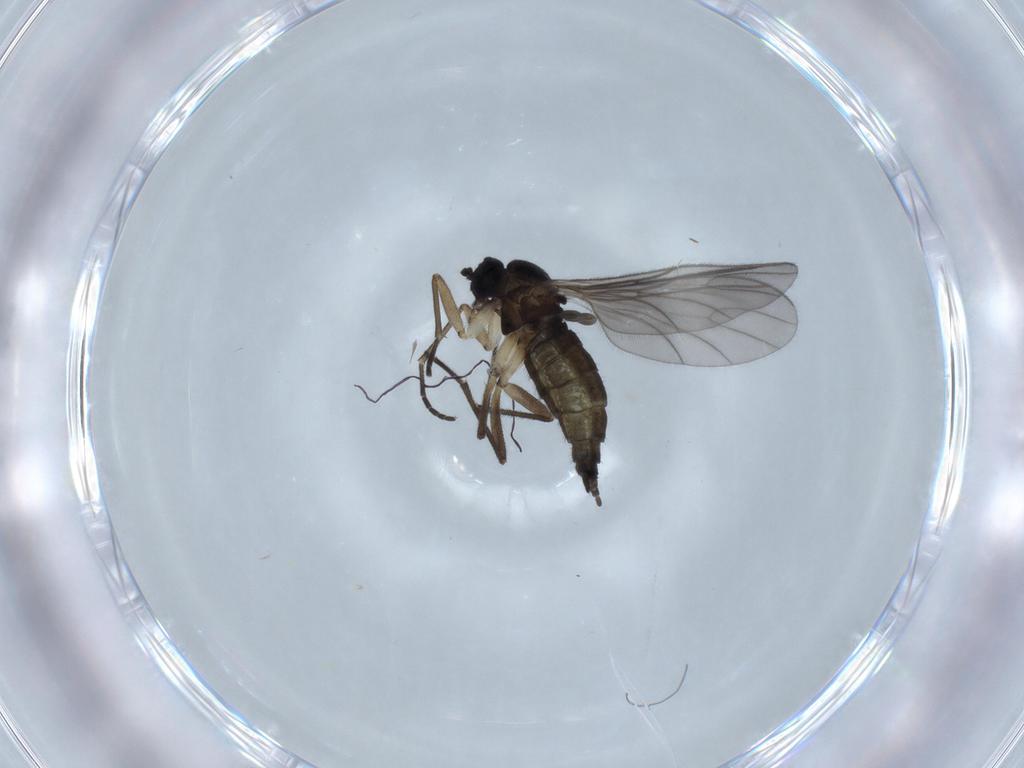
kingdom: Animalia
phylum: Arthropoda
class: Insecta
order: Diptera
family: Sciaridae
